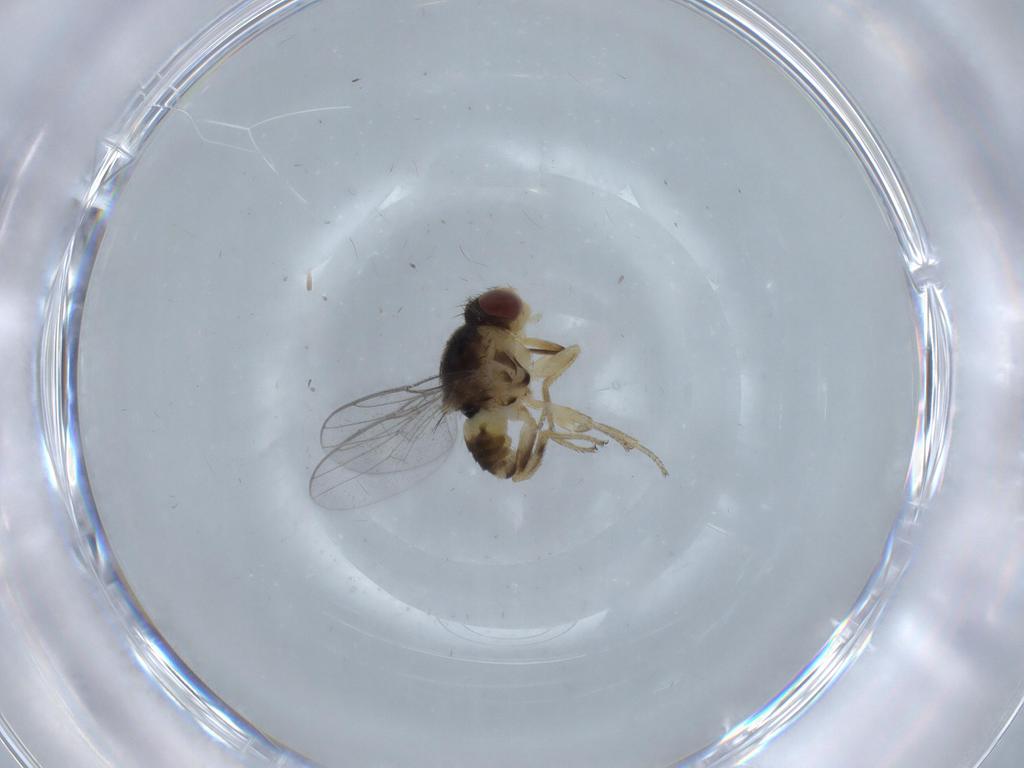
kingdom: Animalia
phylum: Arthropoda
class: Insecta
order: Diptera
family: Chloropidae
